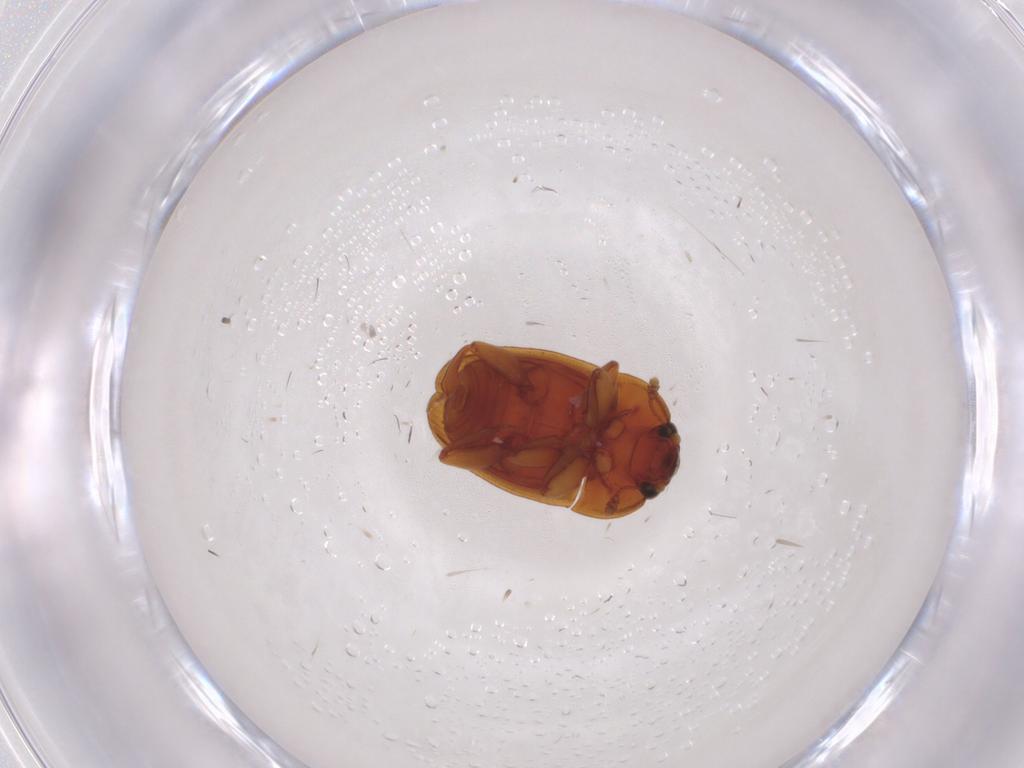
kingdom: Animalia
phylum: Arthropoda
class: Insecta
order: Coleoptera
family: Nitidulidae
